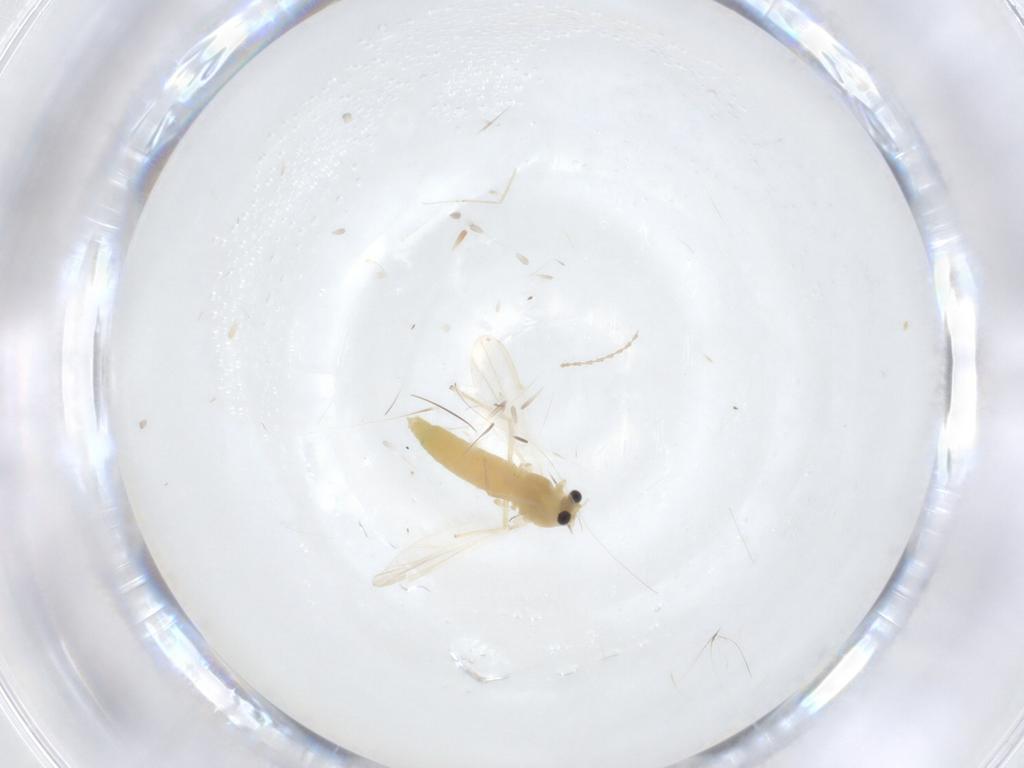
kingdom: Animalia
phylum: Arthropoda
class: Insecta
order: Diptera
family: Chironomidae
